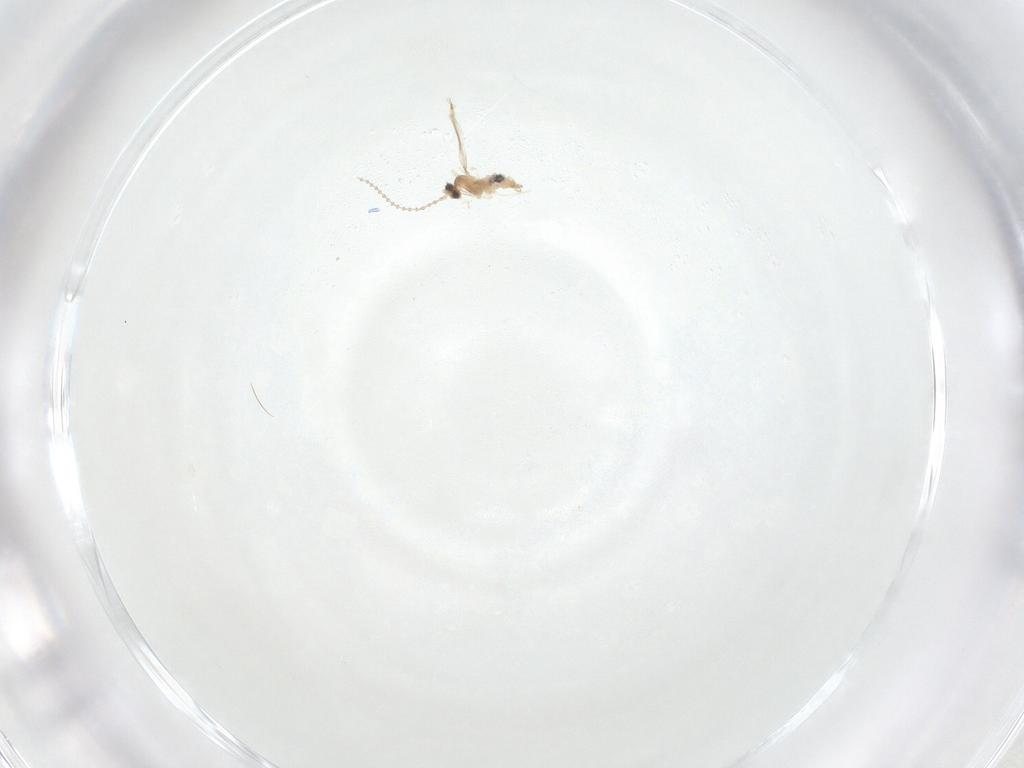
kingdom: Animalia
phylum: Arthropoda
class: Insecta
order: Diptera
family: Cecidomyiidae
